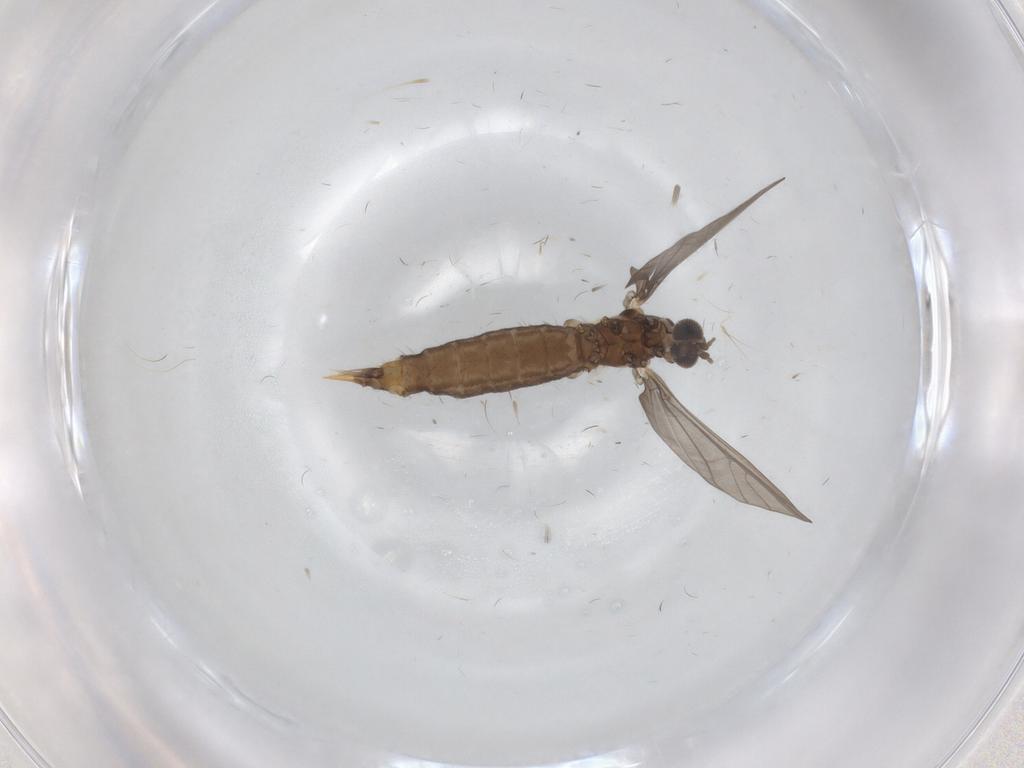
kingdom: Animalia
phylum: Arthropoda
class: Insecta
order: Diptera
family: Limoniidae
